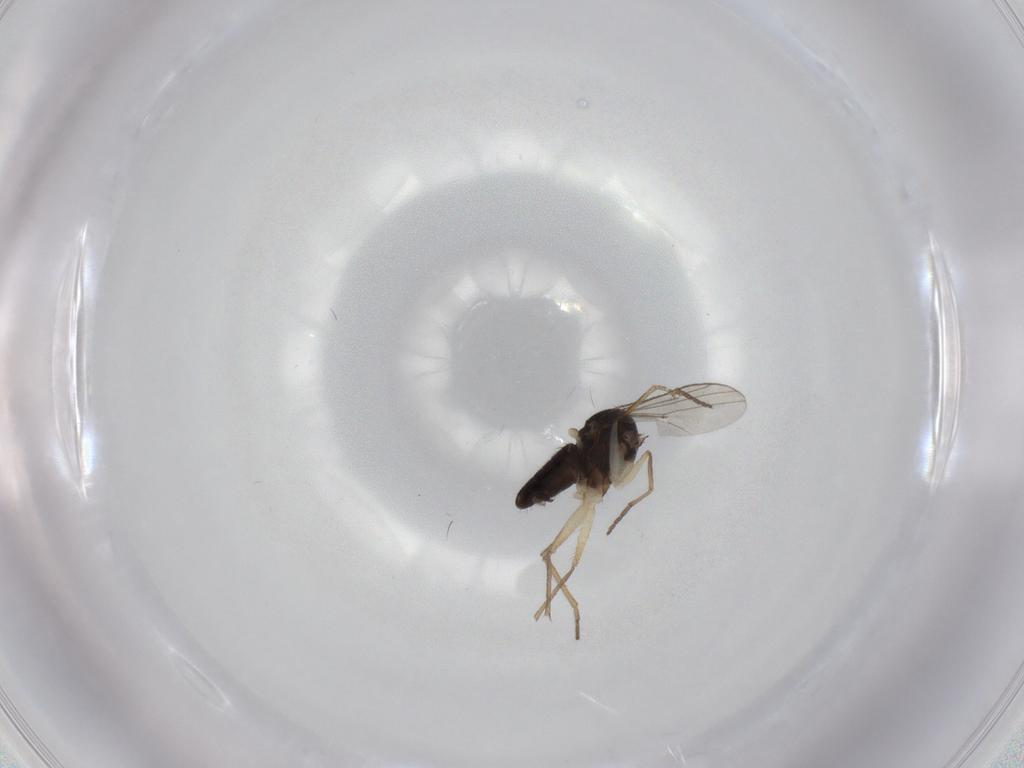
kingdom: Animalia
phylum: Arthropoda
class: Insecta
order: Diptera
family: Dolichopodidae
